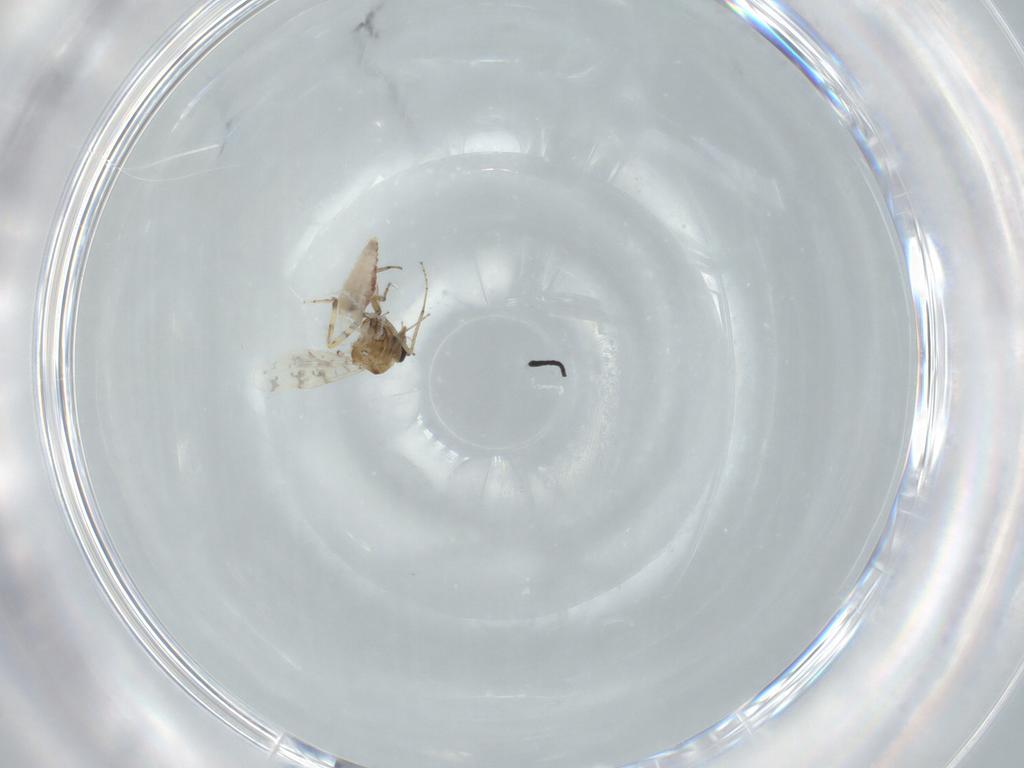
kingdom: Animalia
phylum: Arthropoda
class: Insecta
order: Diptera
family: Ceratopogonidae
